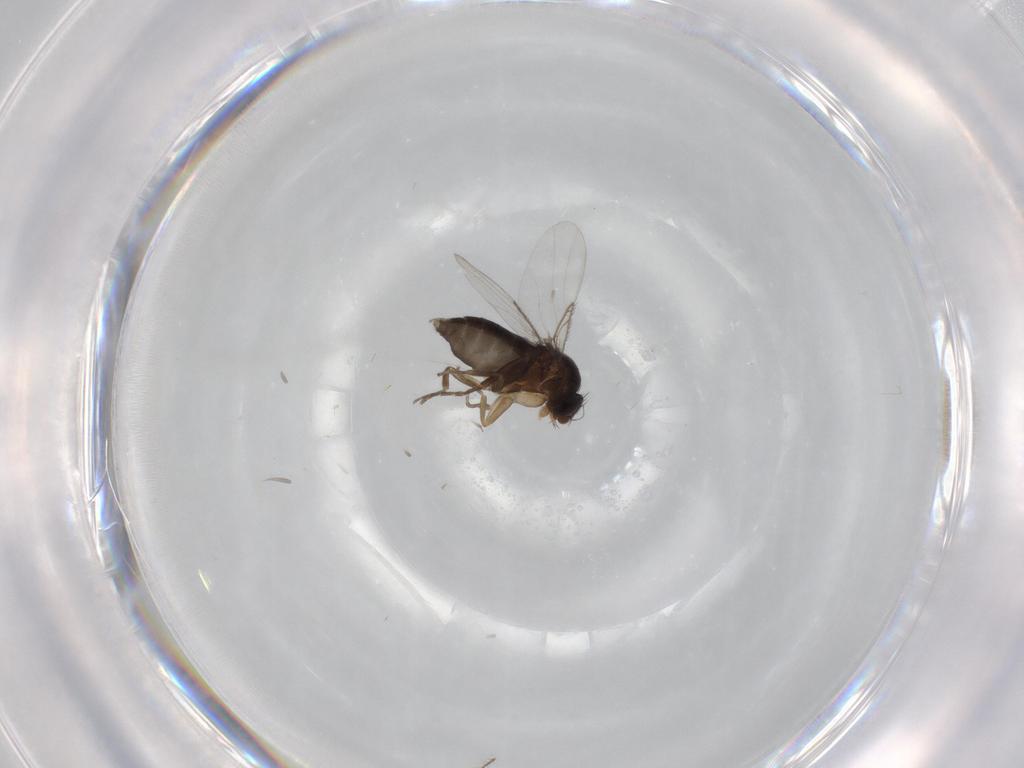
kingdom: Animalia
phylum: Arthropoda
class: Insecta
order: Diptera
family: Phoridae
